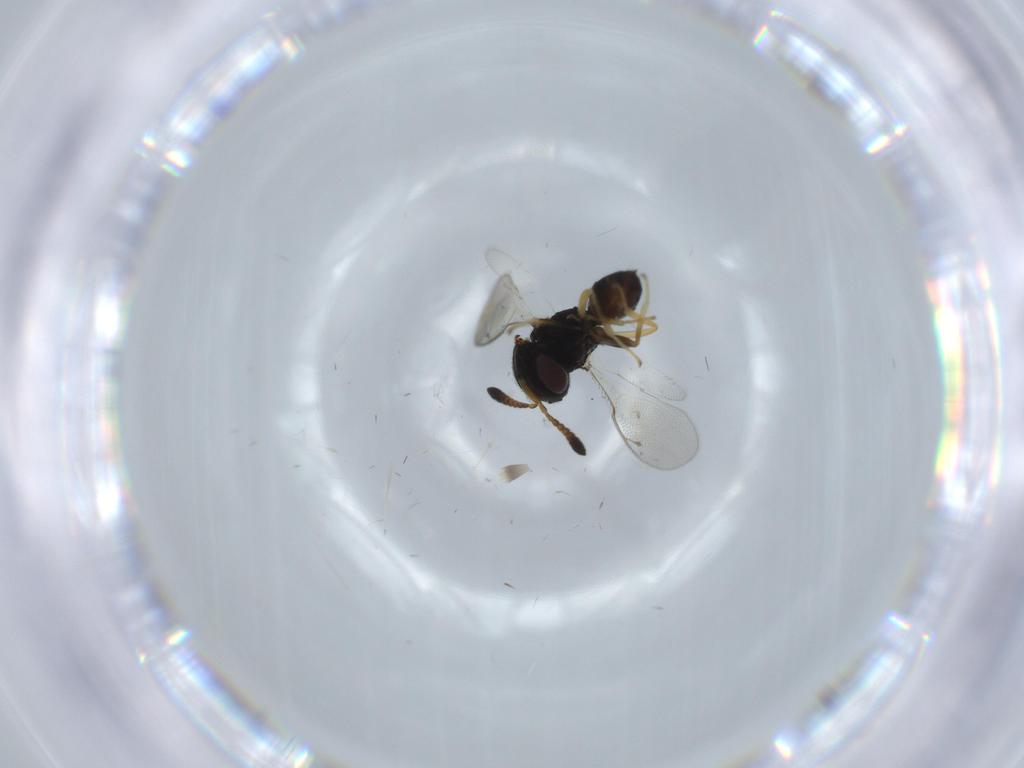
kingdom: Animalia
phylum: Arthropoda
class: Insecta
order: Hymenoptera
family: Pteromalidae
